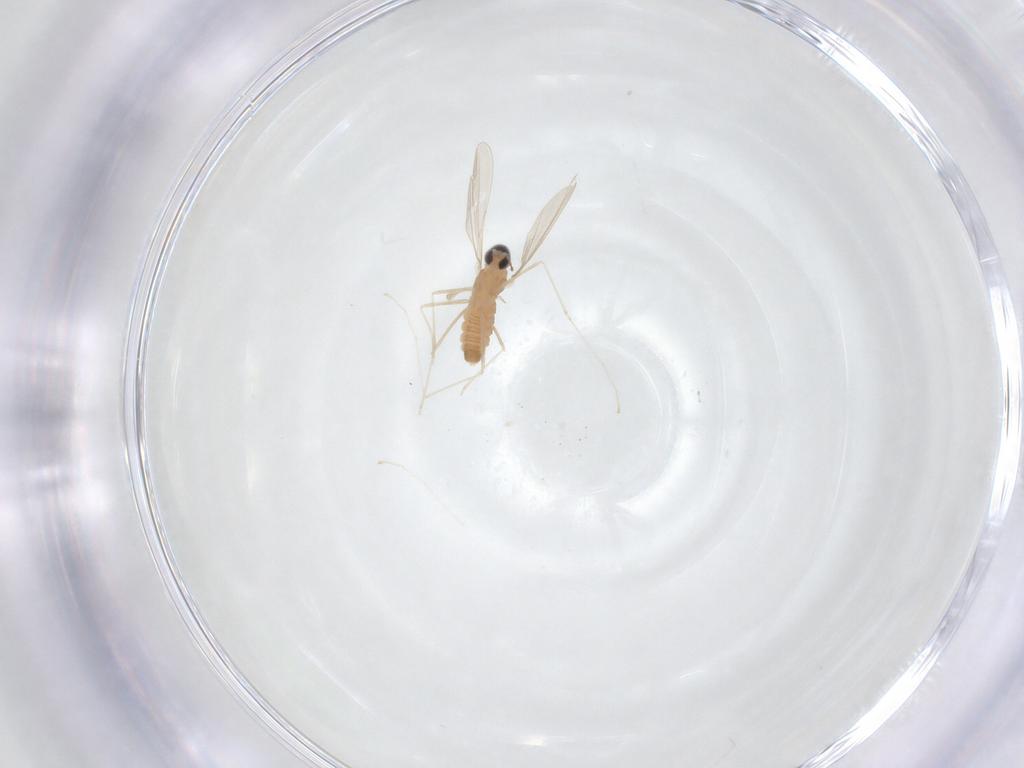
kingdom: Animalia
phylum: Arthropoda
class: Insecta
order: Diptera
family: Cecidomyiidae
